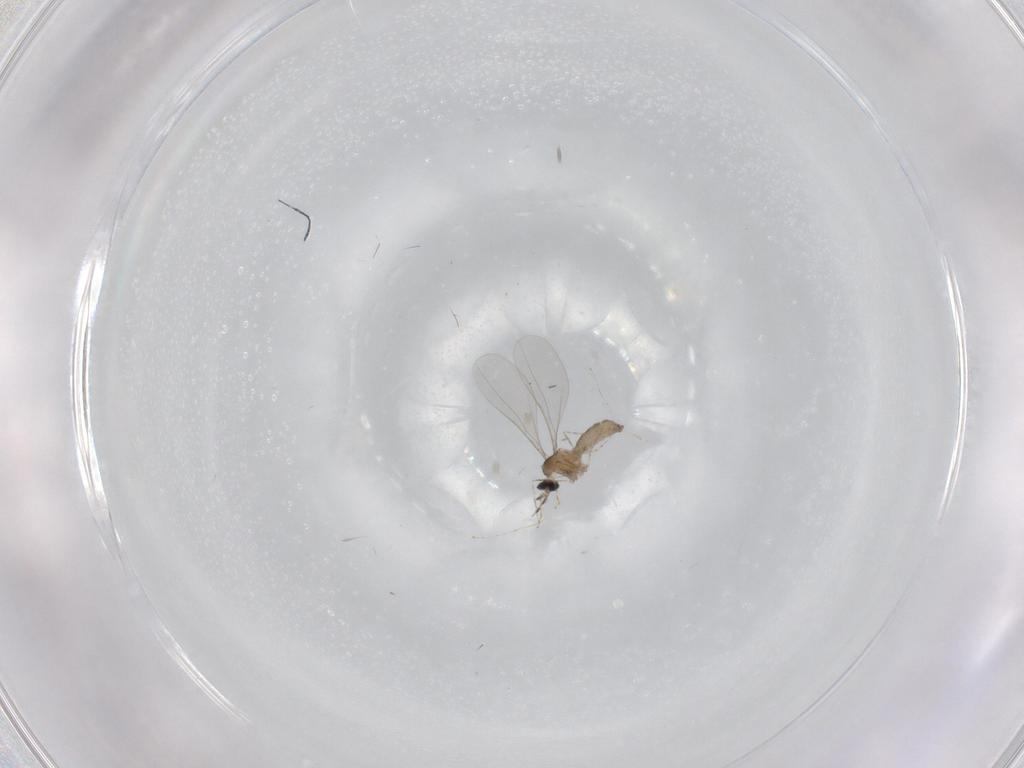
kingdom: Animalia
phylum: Arthropoda
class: Insecta
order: Diptera
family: Cecidomyiidae
